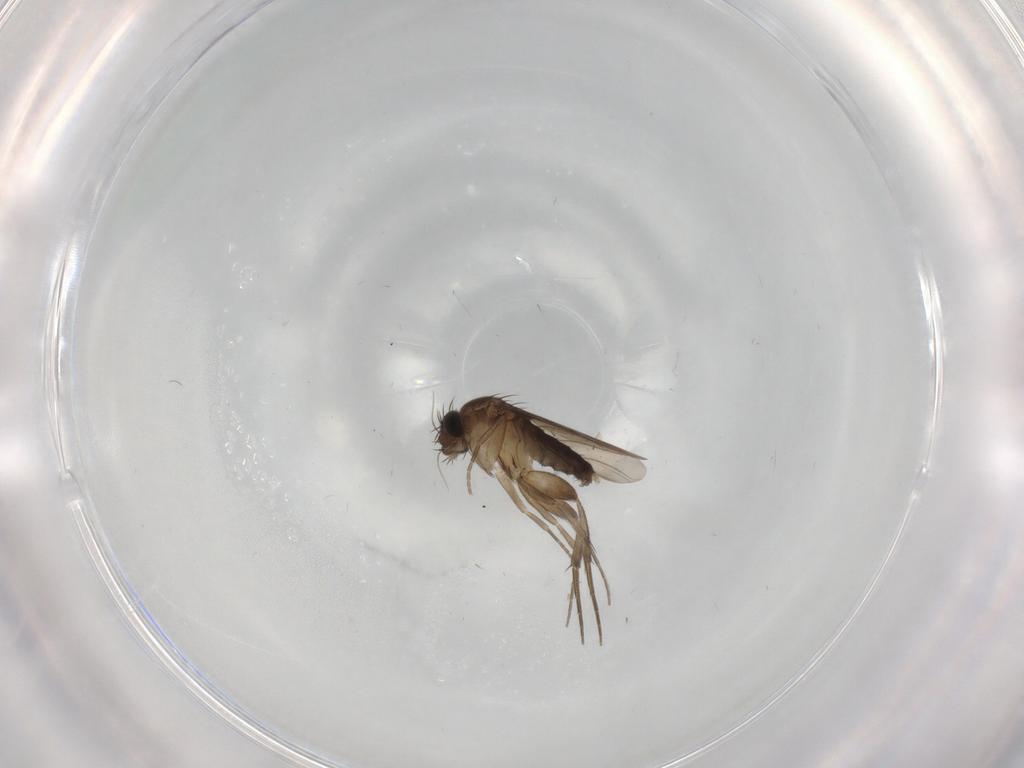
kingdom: Animalia
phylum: Arthropoda
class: Insecta
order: Diptera
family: Phoridae
